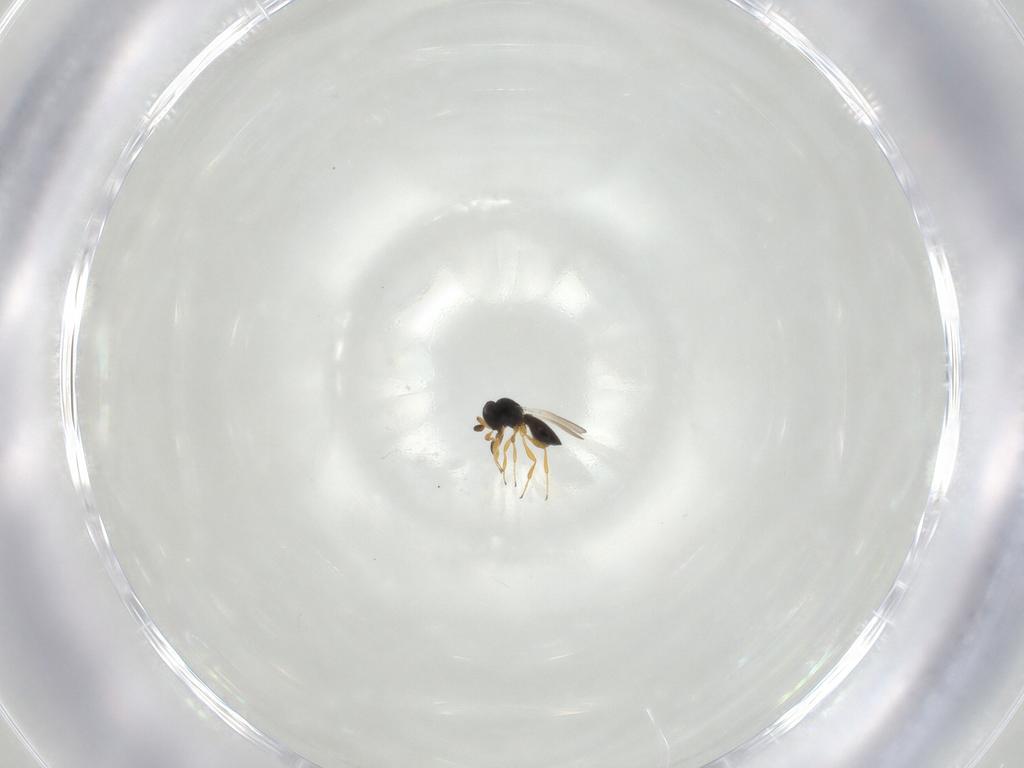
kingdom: Animalia
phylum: Arthropoda
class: Insecta
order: Hymenoptera
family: Platygastridae
